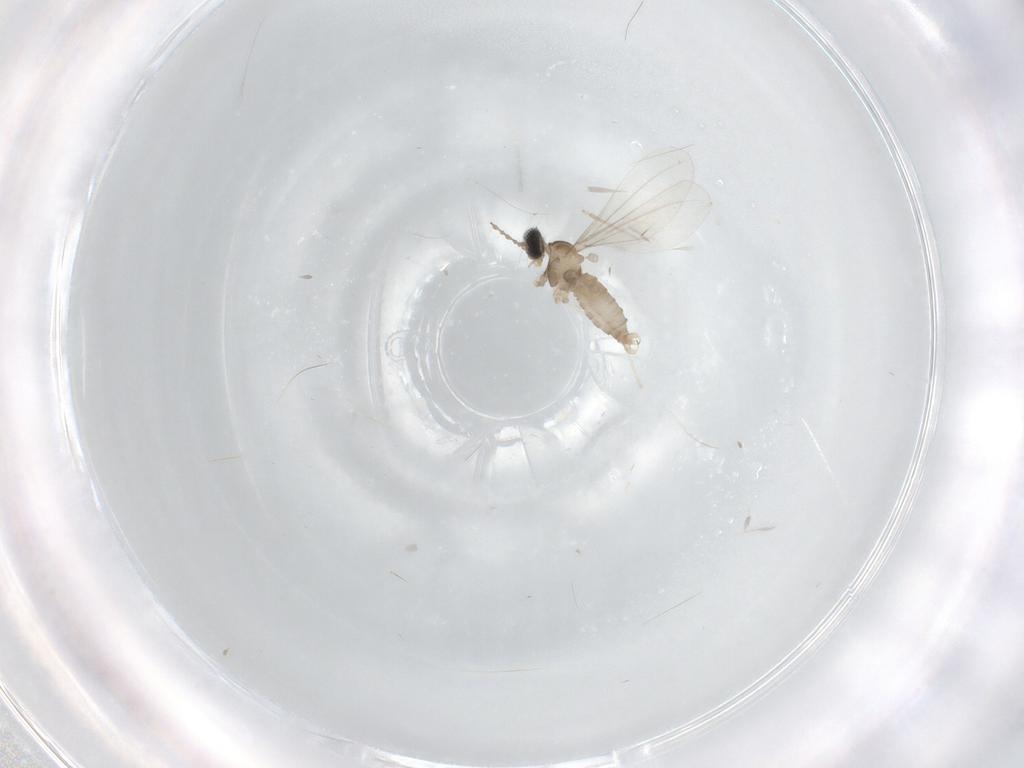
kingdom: Animalia
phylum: Arthropoda
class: Insecta
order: Diptera
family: Cecidomyiidae
